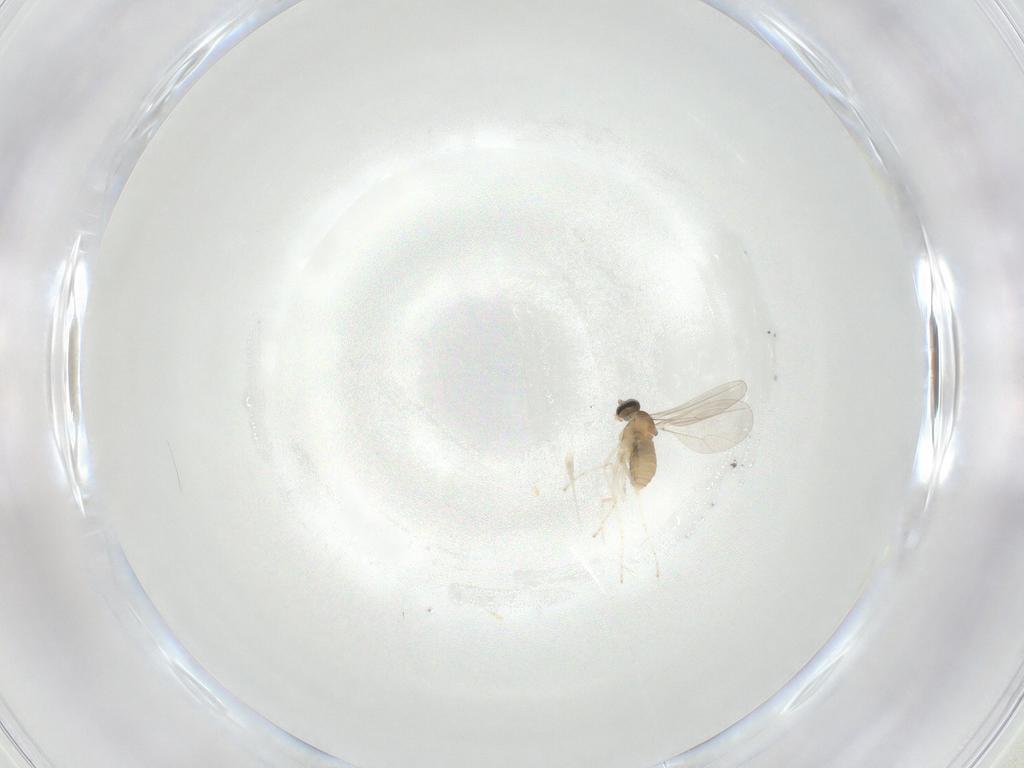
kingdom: Animalia
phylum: Arthropoda
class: Insecta
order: Diptera
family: Cecidomyiidae
